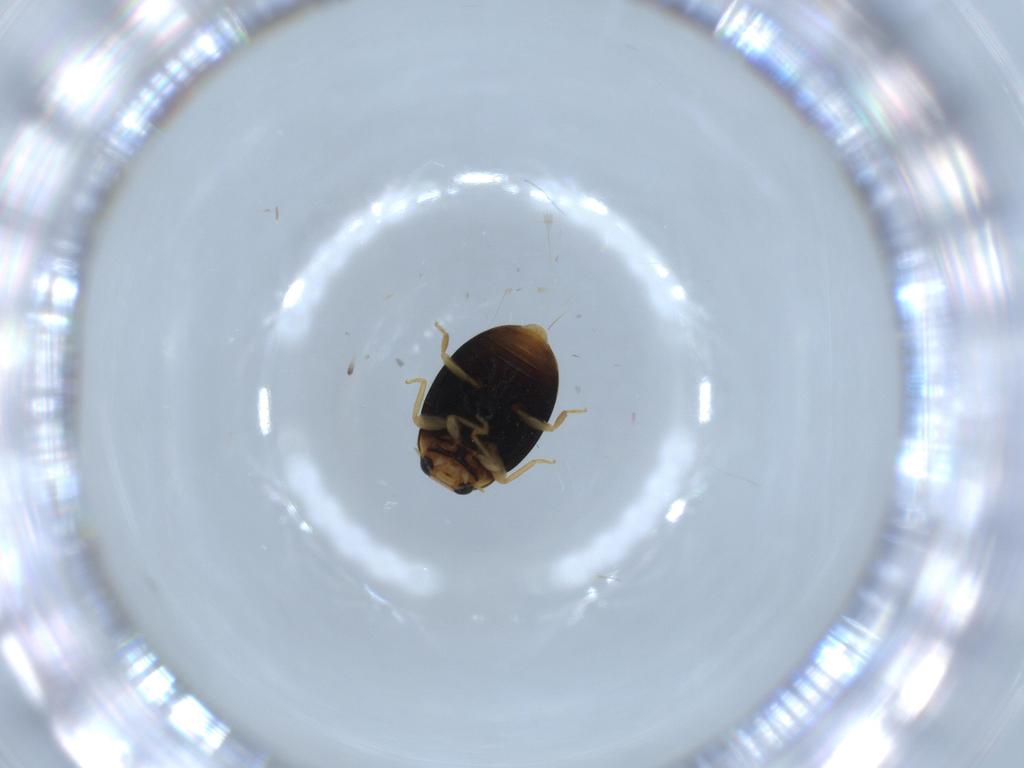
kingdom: Animalia
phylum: Arthropoda
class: Insecta
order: Coleoptera
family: Coccinellidae
